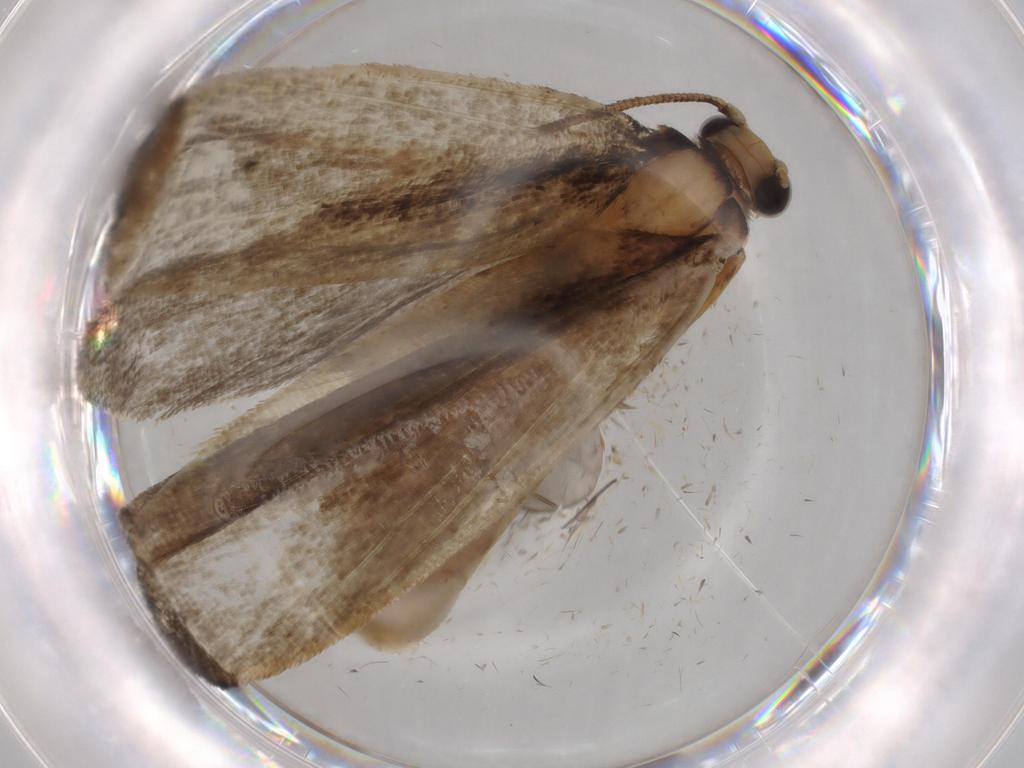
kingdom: Animalia
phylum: Arthropoda
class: Insecta
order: Lepidoptera
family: Tineidae
